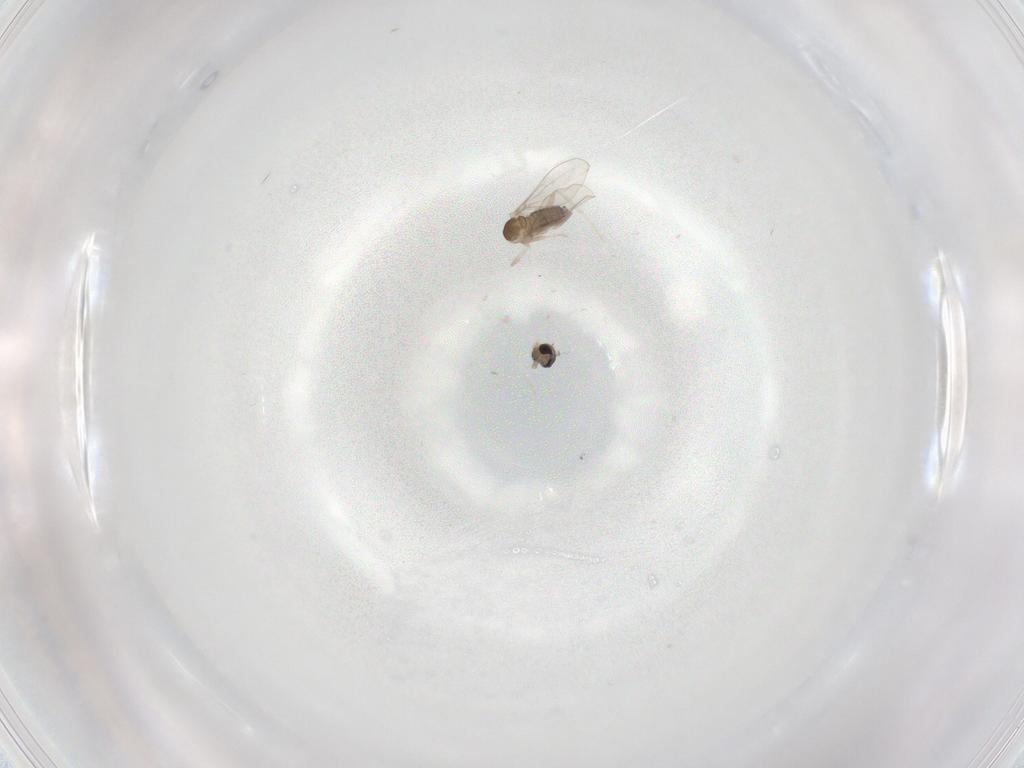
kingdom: Animalia
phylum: Arthropoda
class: Insecta
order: Diptera
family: Cecidomyiidae
